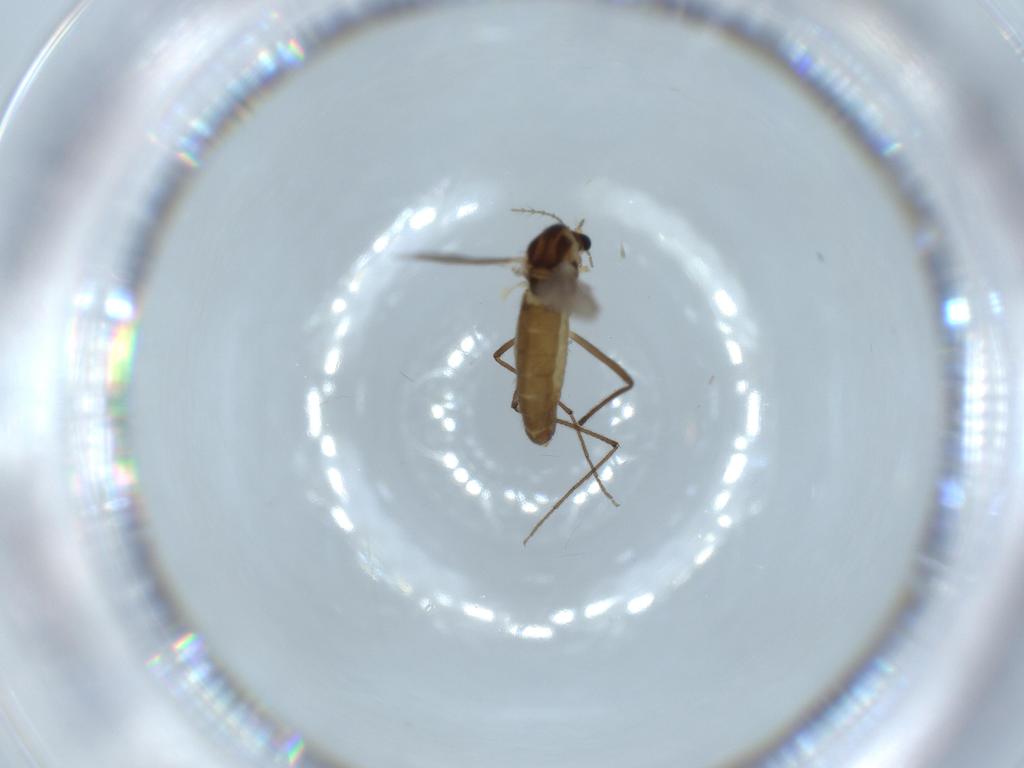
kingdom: Animalia
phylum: Arthropoda
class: Insecta
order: Diptera
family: Chironomidae
